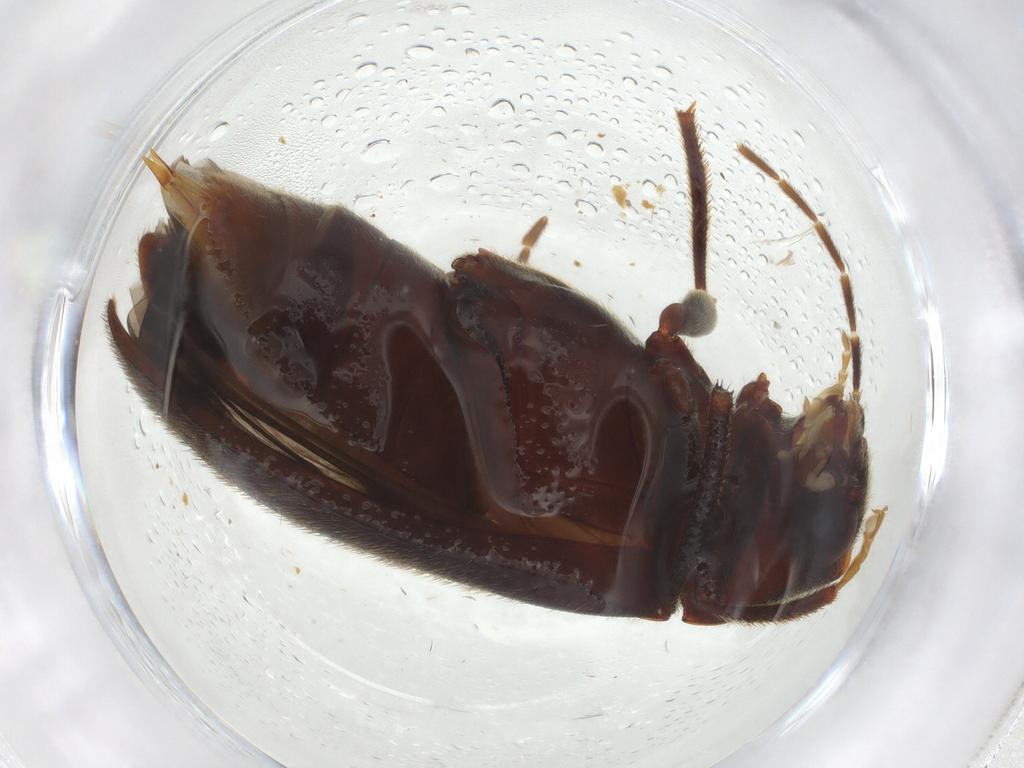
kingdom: Animalia
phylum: Arthropoda
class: Insecta
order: Coleoptera
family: Ptilodactylidae
